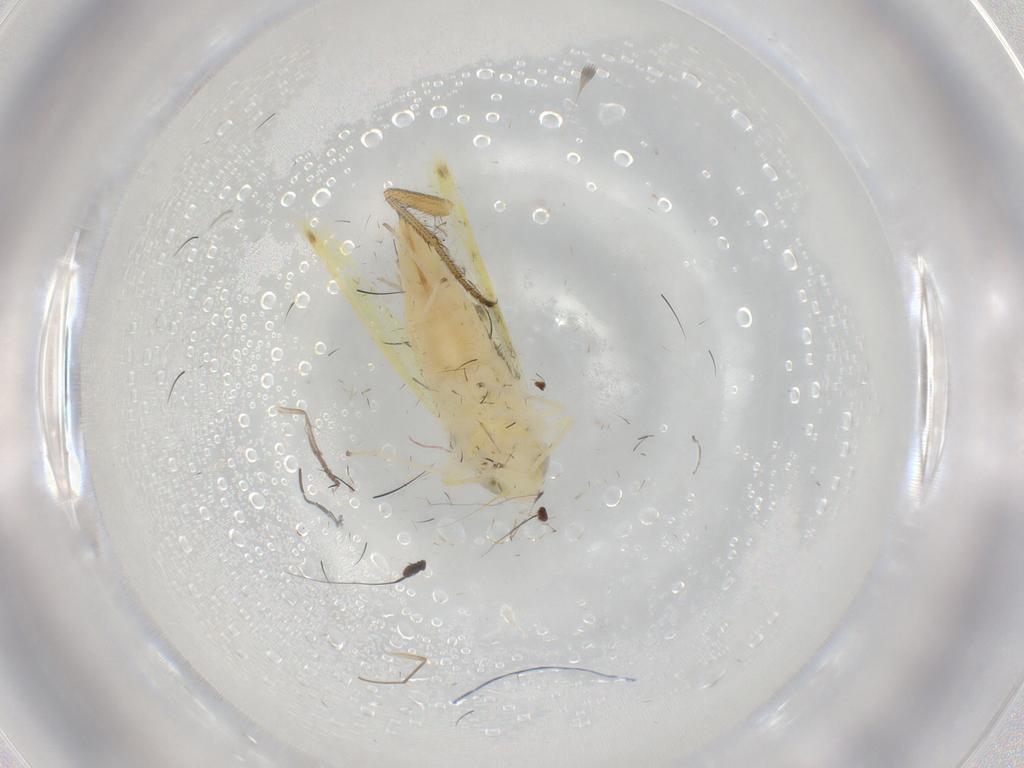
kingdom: Animalia
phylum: Arthropoda
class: Insecta
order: Hemiptera
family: Cicadellidae
